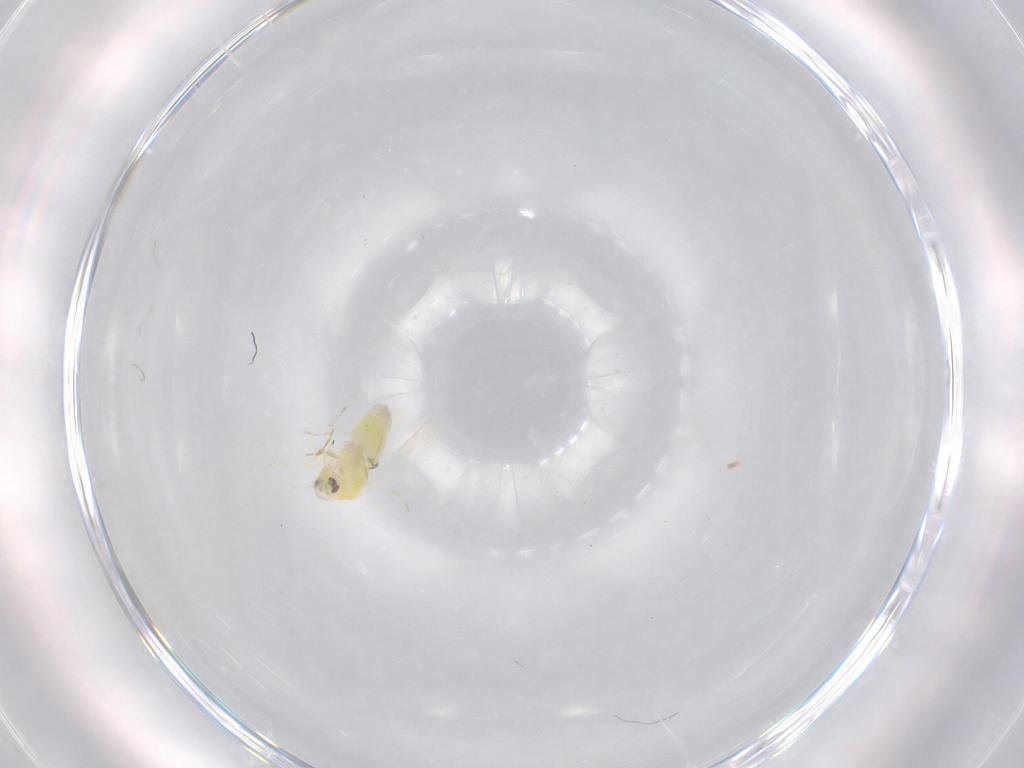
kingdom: Animalia
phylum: Arthropoda
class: Insecta
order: Hemiptera
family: Aleyrodidae
